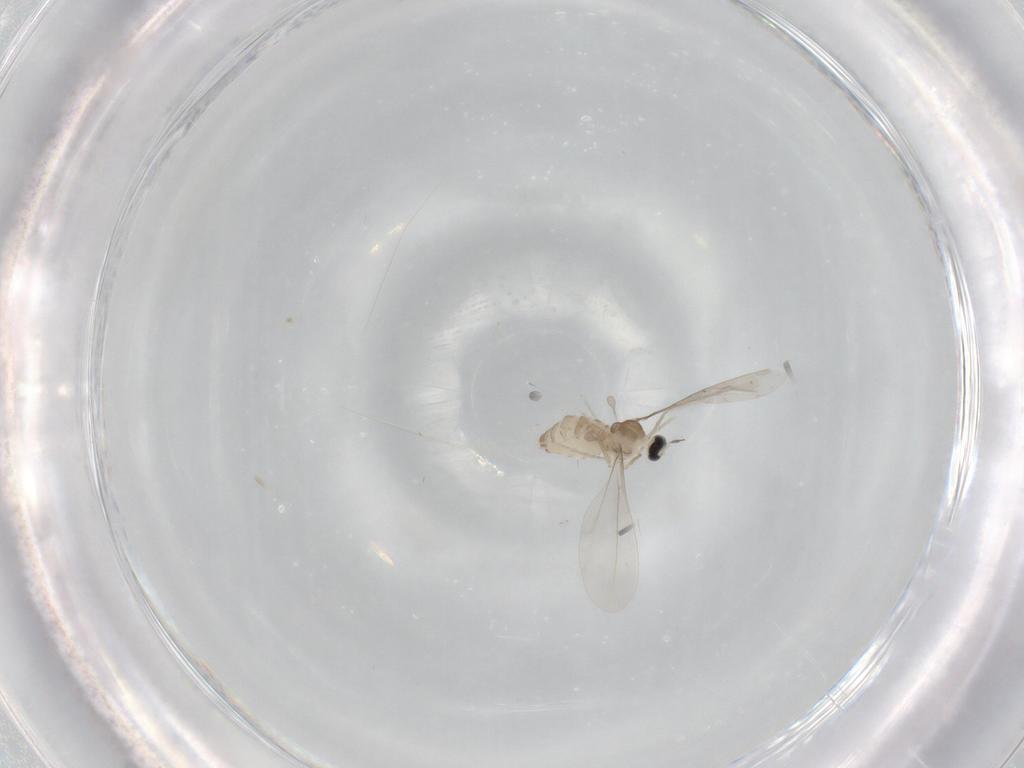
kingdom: Animalia
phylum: Arthropoda
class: Insecta
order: Diptera
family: Cecidomyiidae
